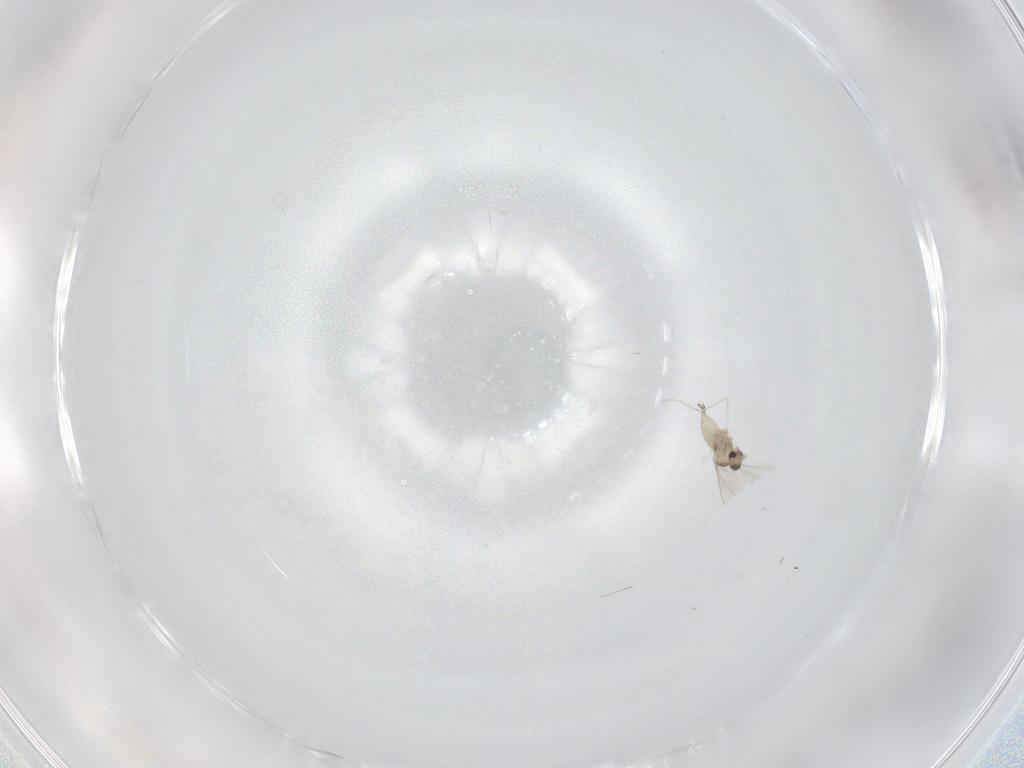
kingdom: Animalia
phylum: Arthropoda
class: Insecta
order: Diptera
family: Cecidomyiidae
